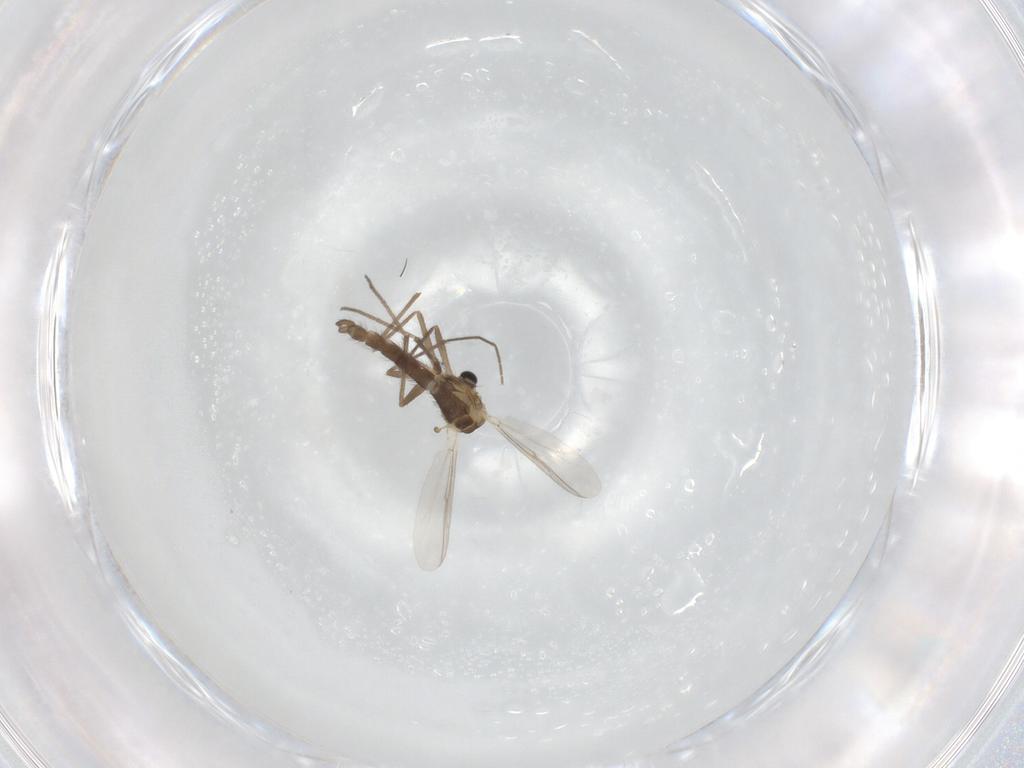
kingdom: Animalia
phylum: Arthropoda
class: Insecta
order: Diptera
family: Chironomidae
